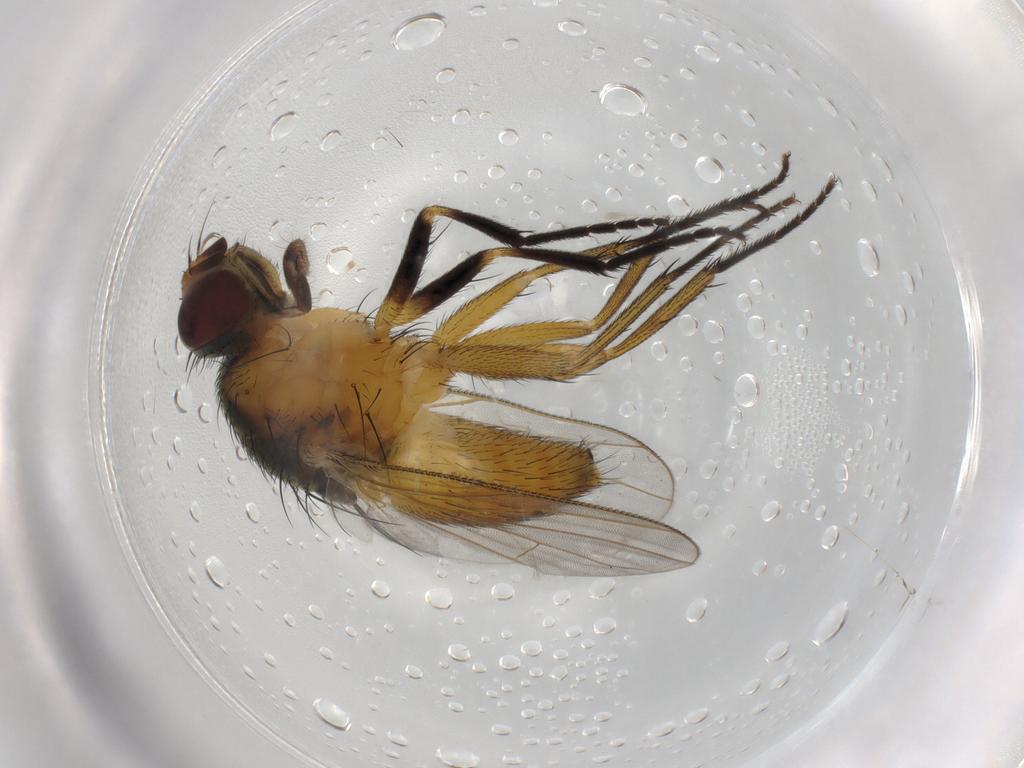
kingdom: Animalia
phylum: Arthropoda
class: Insecta
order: Diptera
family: Muscidae
